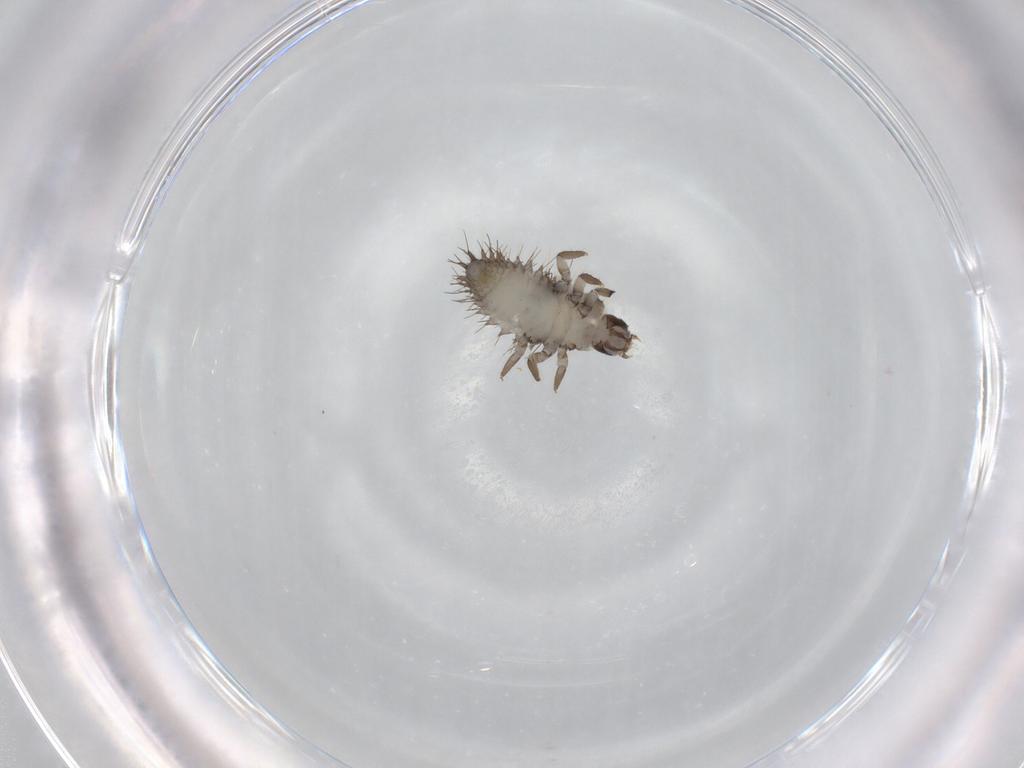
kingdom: Animalia
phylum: Arthropoda
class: Insecta
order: Coleoptera
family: Coccinellidae
